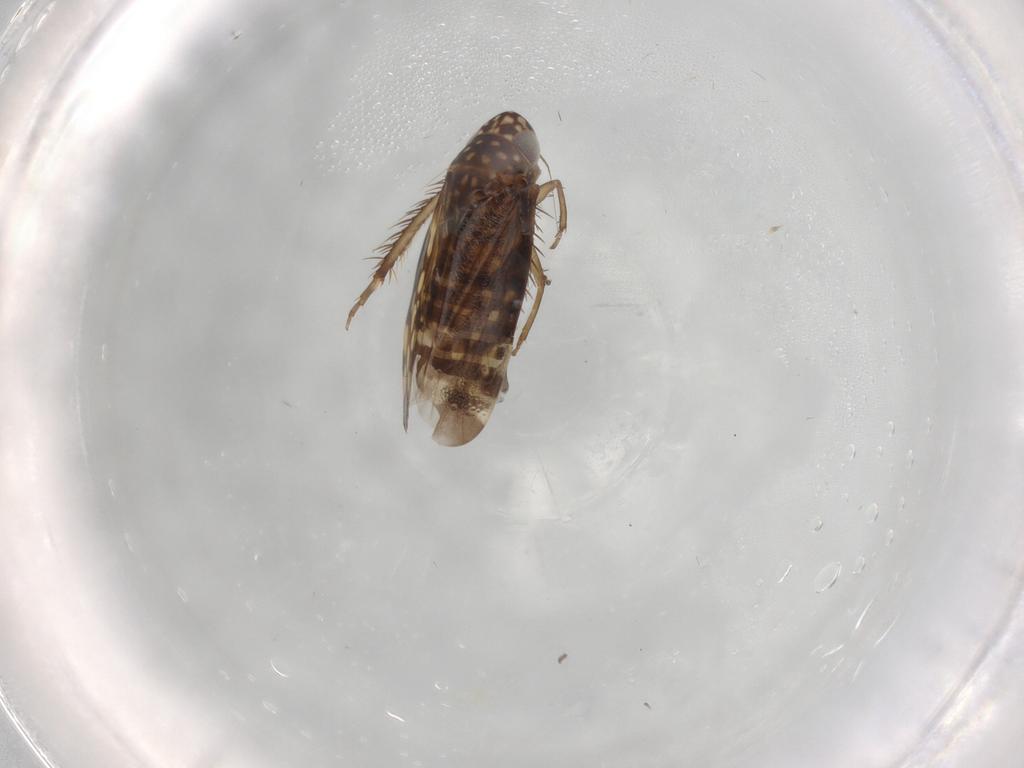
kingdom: Animalia
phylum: Arthropoda
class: Insecta
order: Hemiptera
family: Cicadellidae
